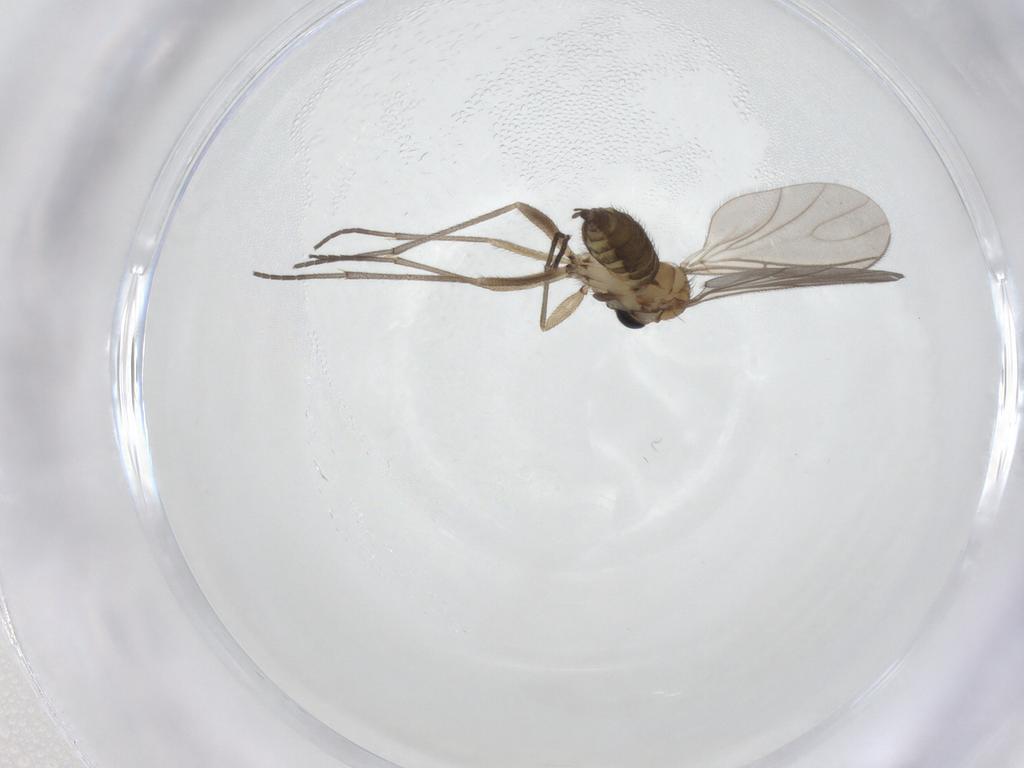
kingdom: Animalia
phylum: Arthropoda
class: Insecta
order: Diptera
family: Sciaridae
